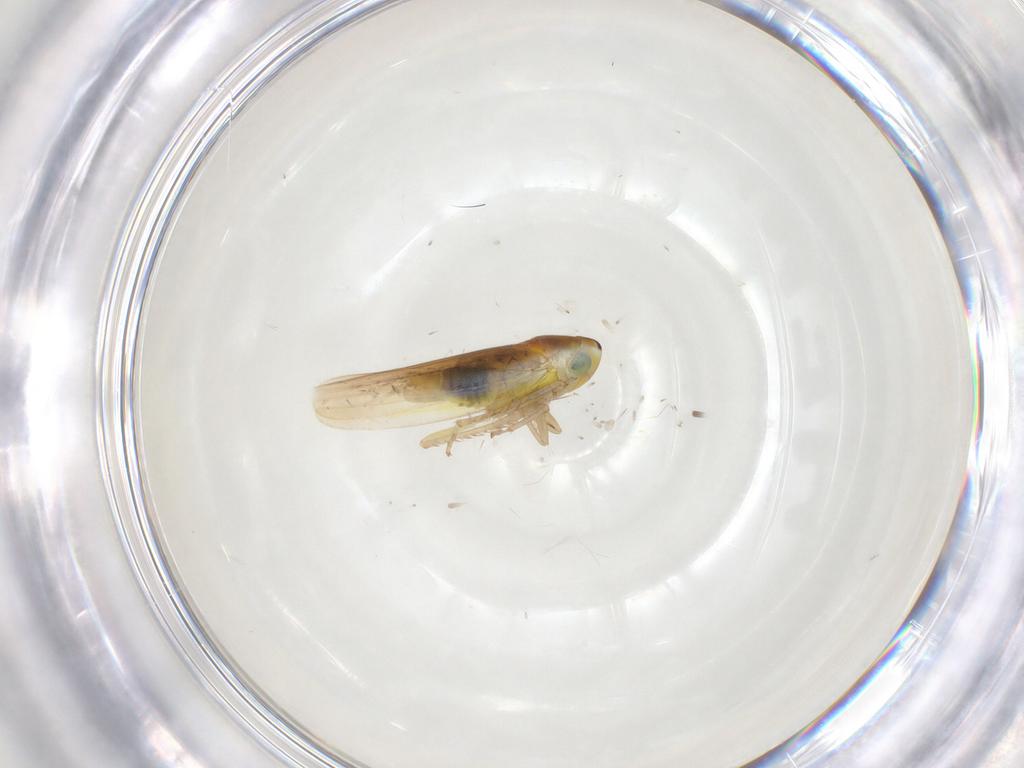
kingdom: Animalia
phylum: Arthropoda
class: Insecta
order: Hemiptera
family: Cicadellidae
